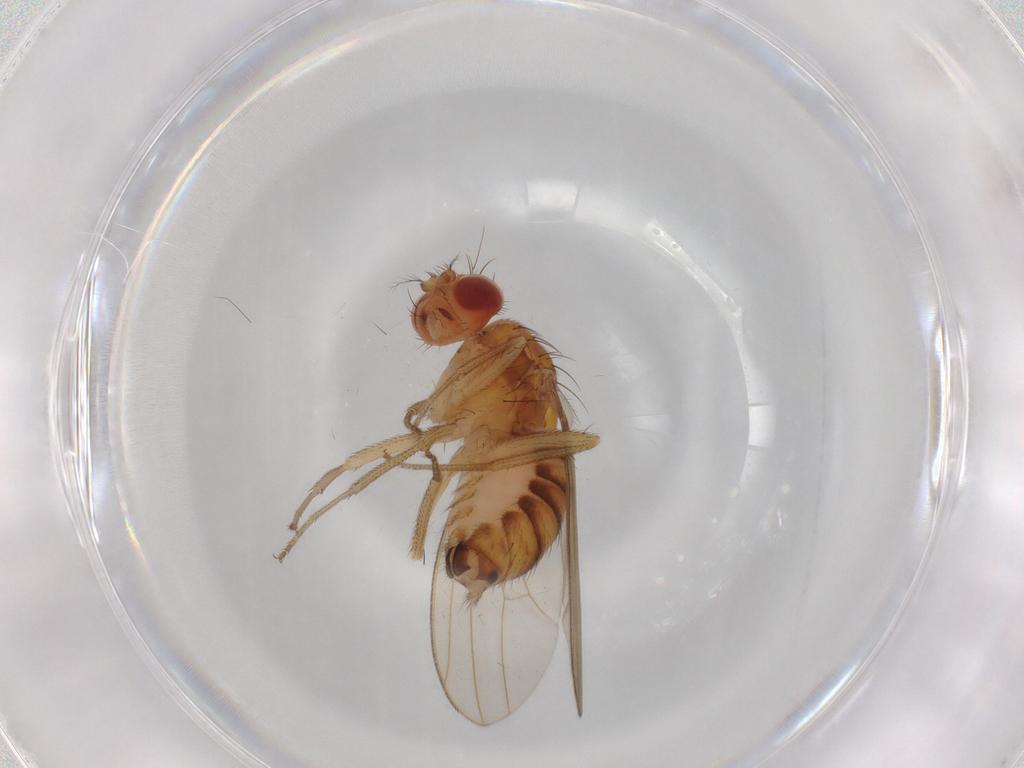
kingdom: Animalia
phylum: Arthropoda
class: Insecta
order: Diptera
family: Drosophilidae
